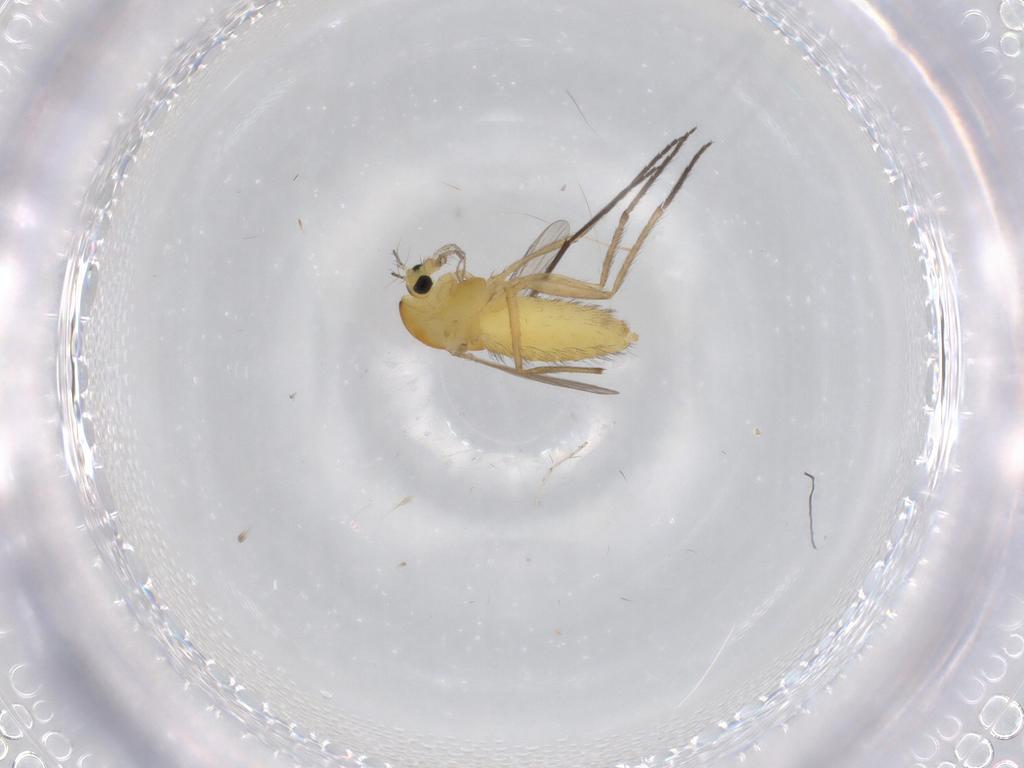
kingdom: Animalia
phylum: Arthropoda
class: Insecta
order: Diptera
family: Chironomidae
